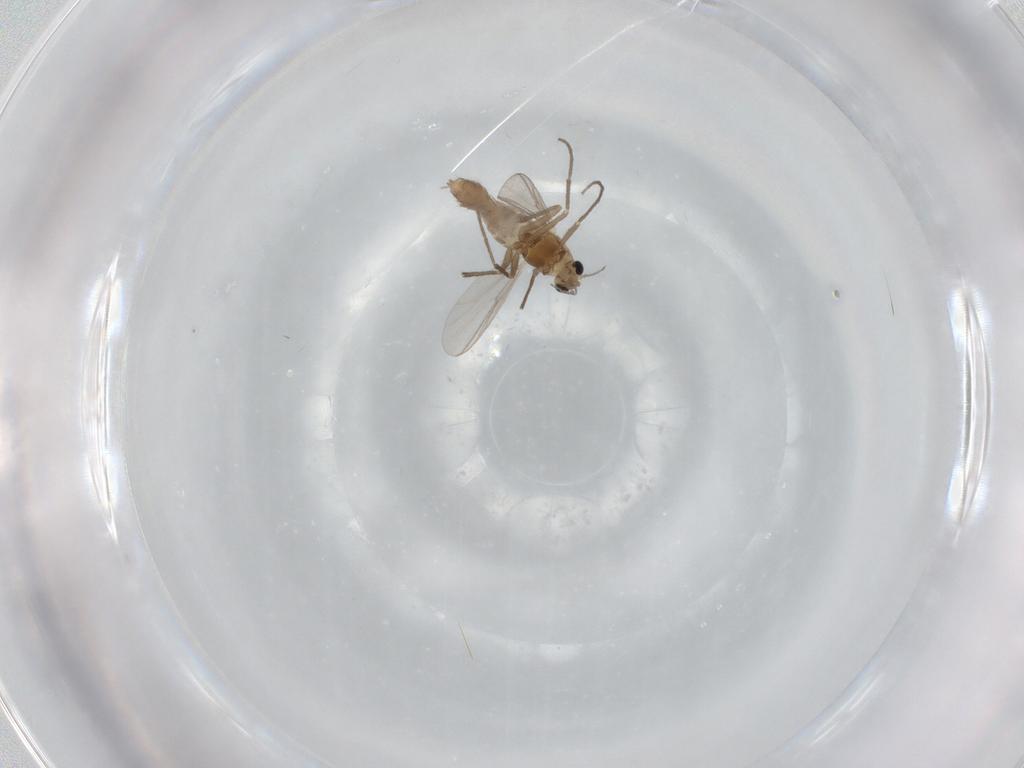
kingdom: Animalia
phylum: Arthropoda
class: Insecta
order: Diptera
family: Chironomidae
